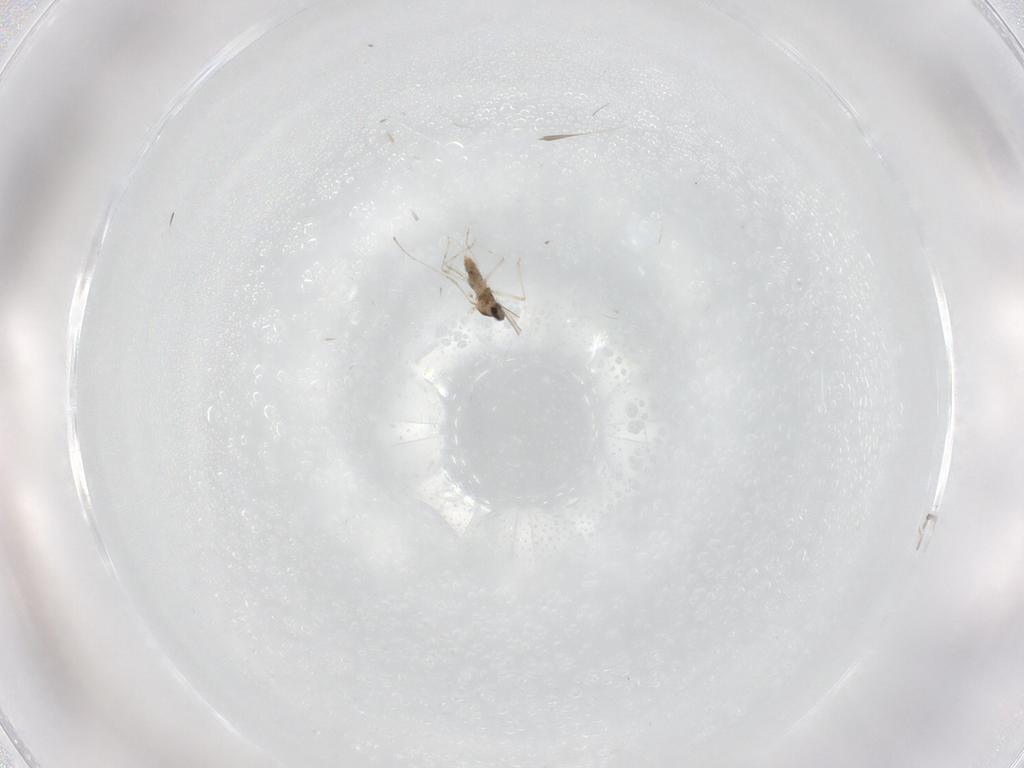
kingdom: Animalia
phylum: Arthropoda
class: Insecta
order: Diptera
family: Cecidomyiidae
